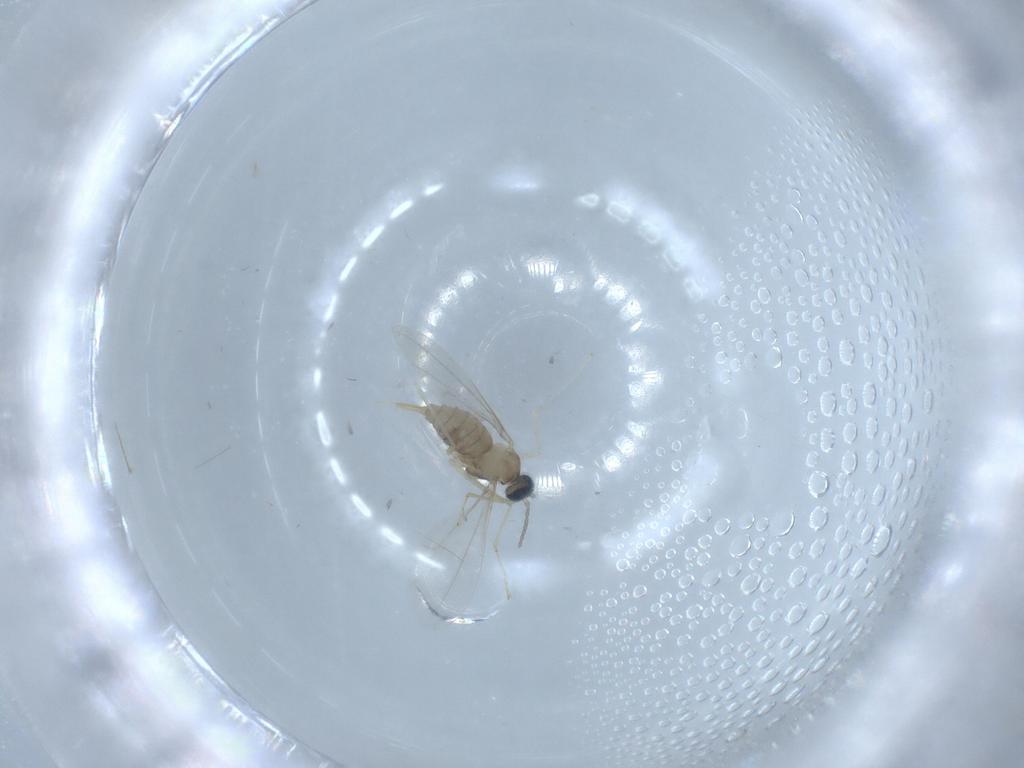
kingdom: Animalia
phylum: Arthropoda
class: Insecta
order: Diptera
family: Cecidomyiidae
